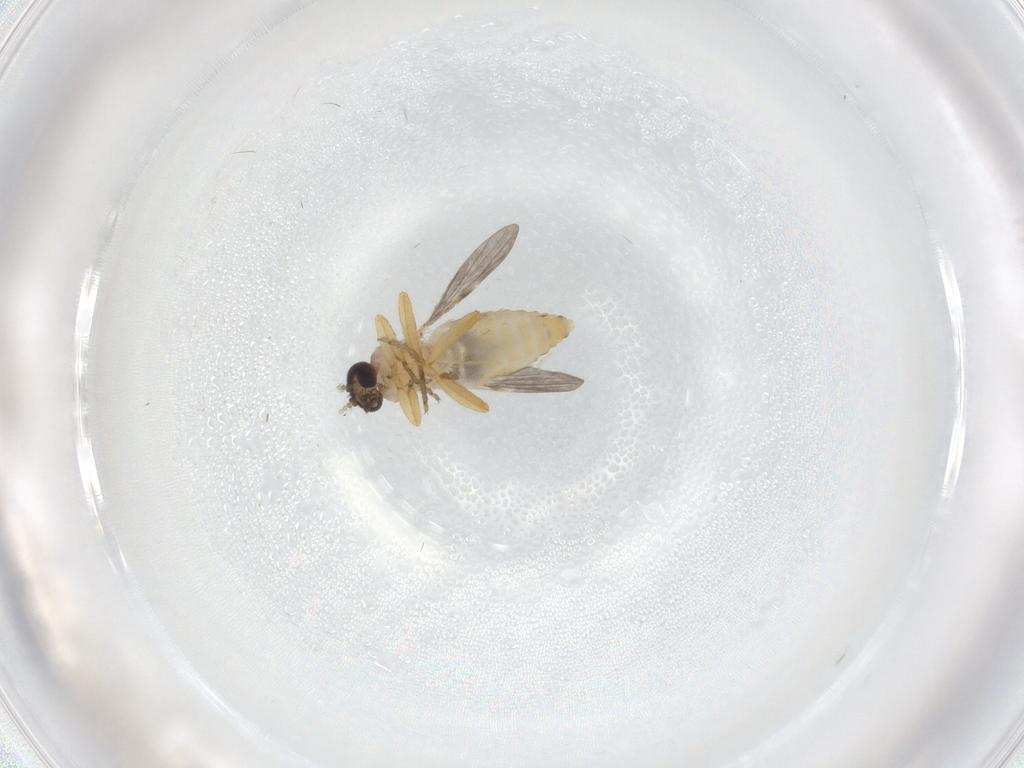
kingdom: Animalia
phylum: Arthropoda
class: Insecta
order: Diptera
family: Ceratopogonidae
